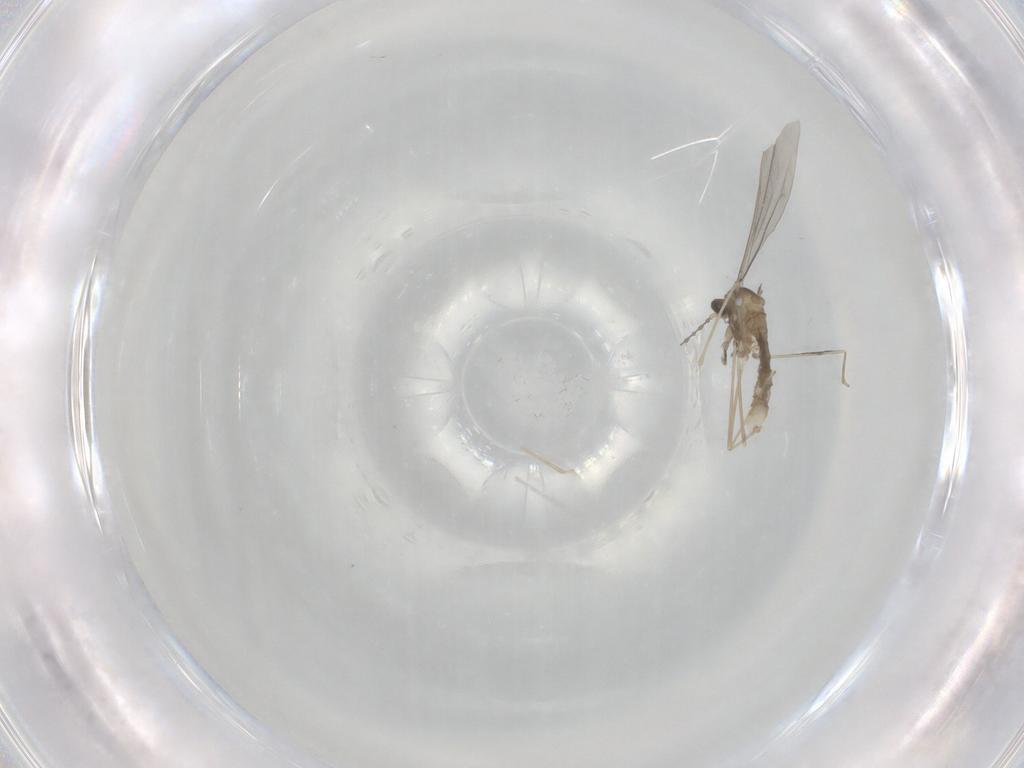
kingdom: Animalia
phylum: Arthropoda
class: Insecta
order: Diptera
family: Cecidomyiidae
